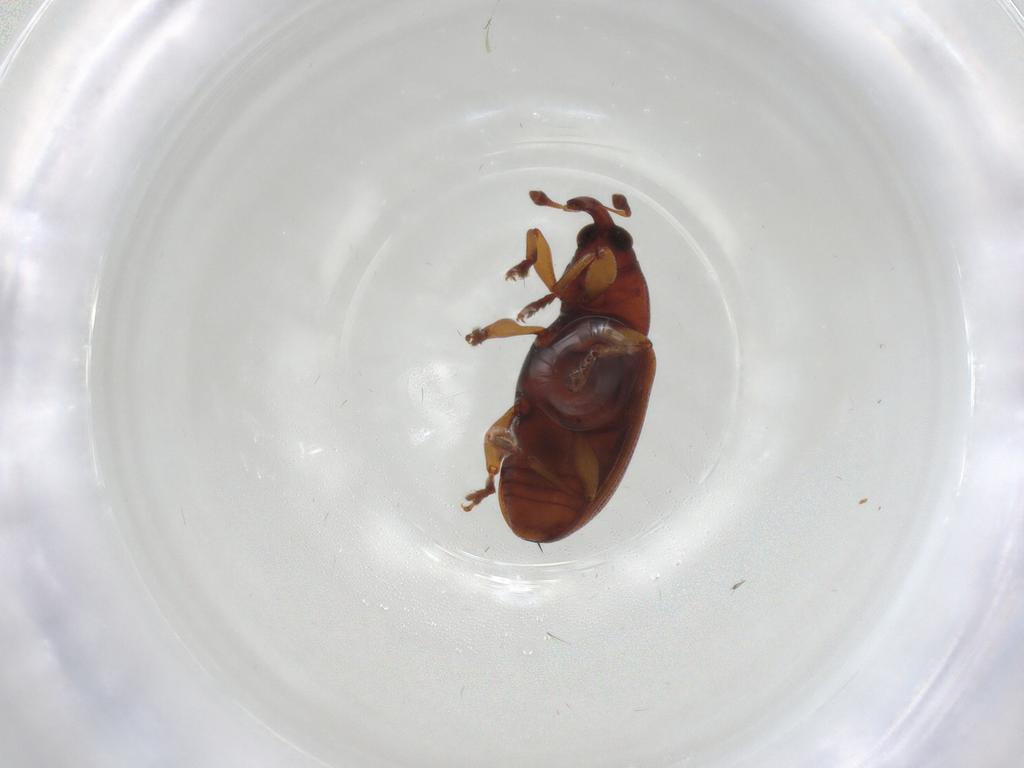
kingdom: Animalia
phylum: Arthropoda
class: Insecta
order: Coleoptera
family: Curculionidae
